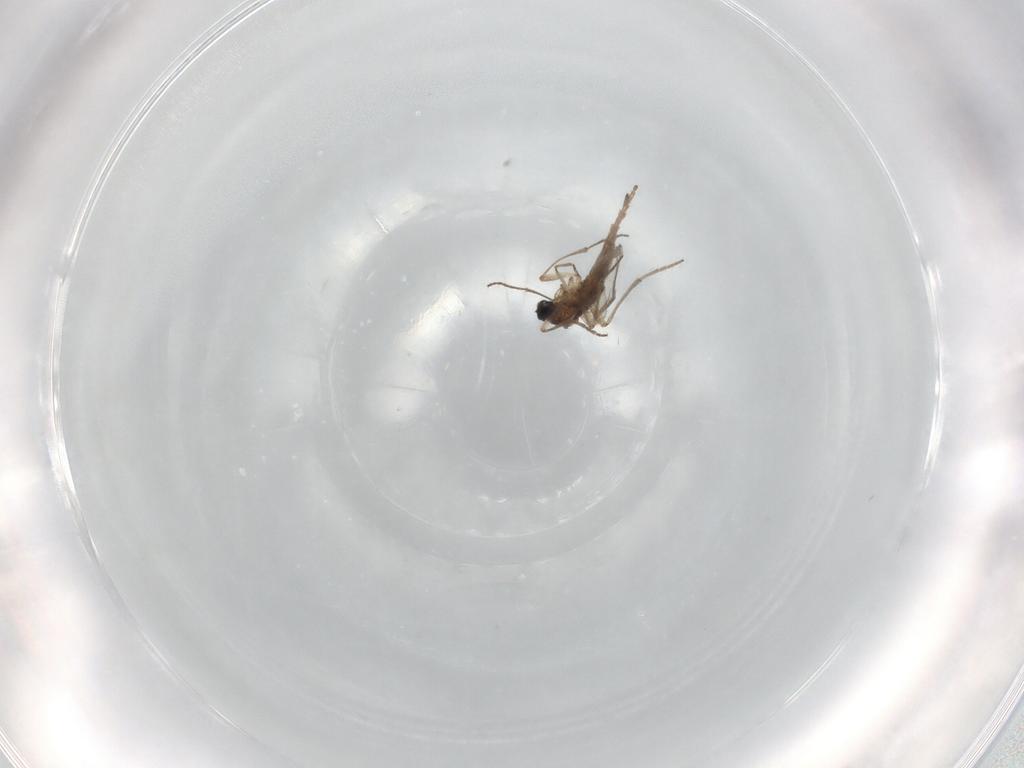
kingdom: Animalia
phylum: Arthropoda
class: Insecta
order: Diptera
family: Sciaridae
